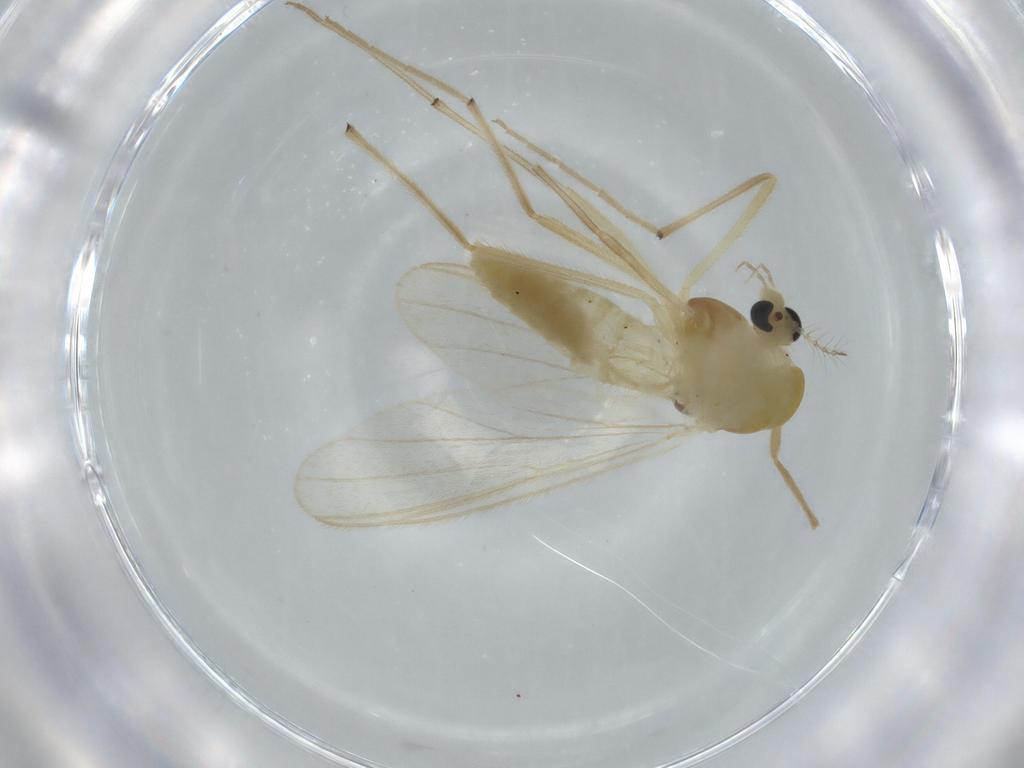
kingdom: Animalia
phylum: Arthropoda
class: Insecta
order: Diptera
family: Chironomidae
